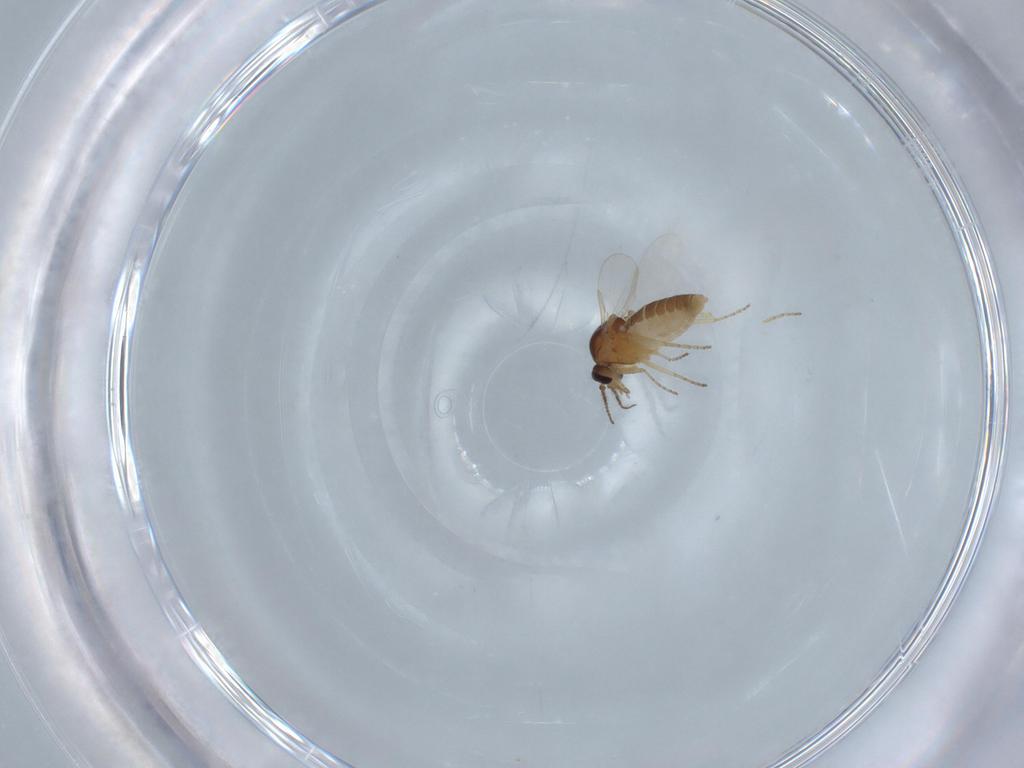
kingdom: Animalia
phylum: Arthropoda
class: Insecta
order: Diptera
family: Ceratopogonidae
